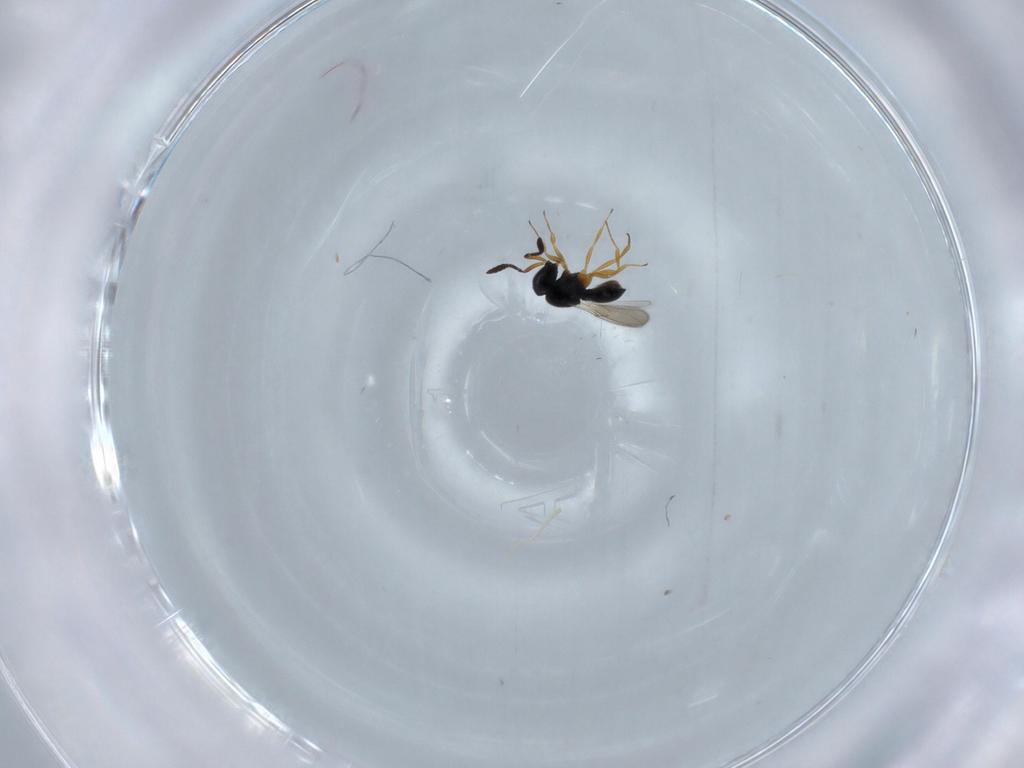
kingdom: Animalia
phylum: Arthropoda
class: Insecta
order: Hymenoptera
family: Scelionidae
